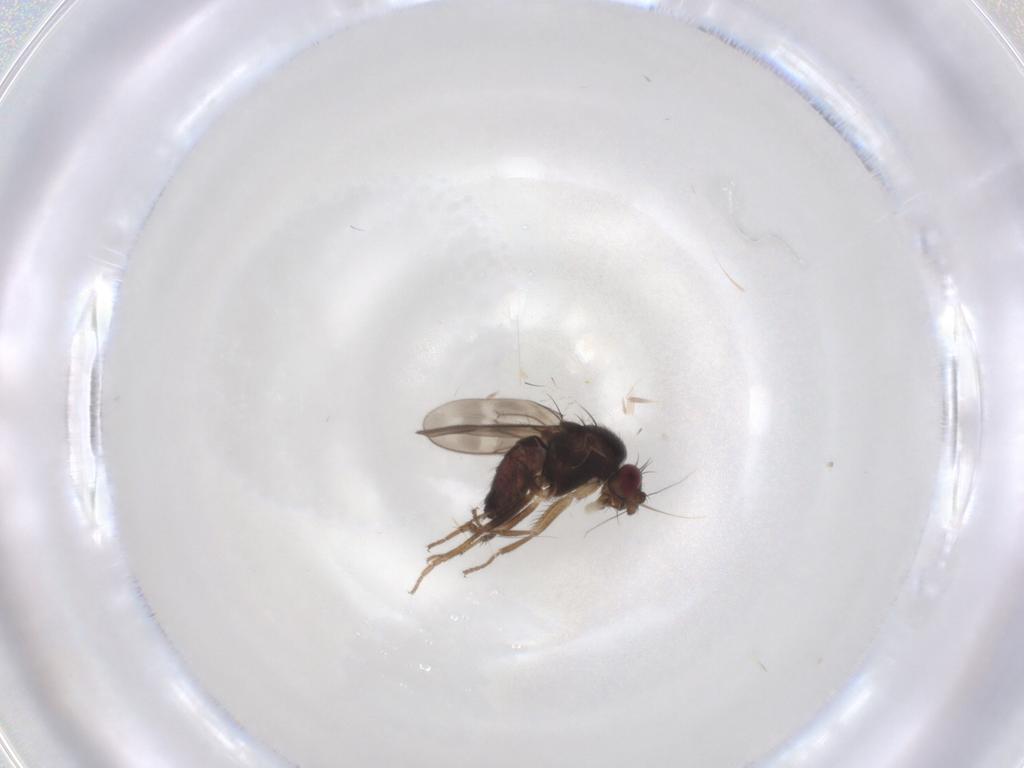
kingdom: Animalia
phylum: Arthropoda
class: Insecta
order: Diptera
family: Sphaeroceridae
